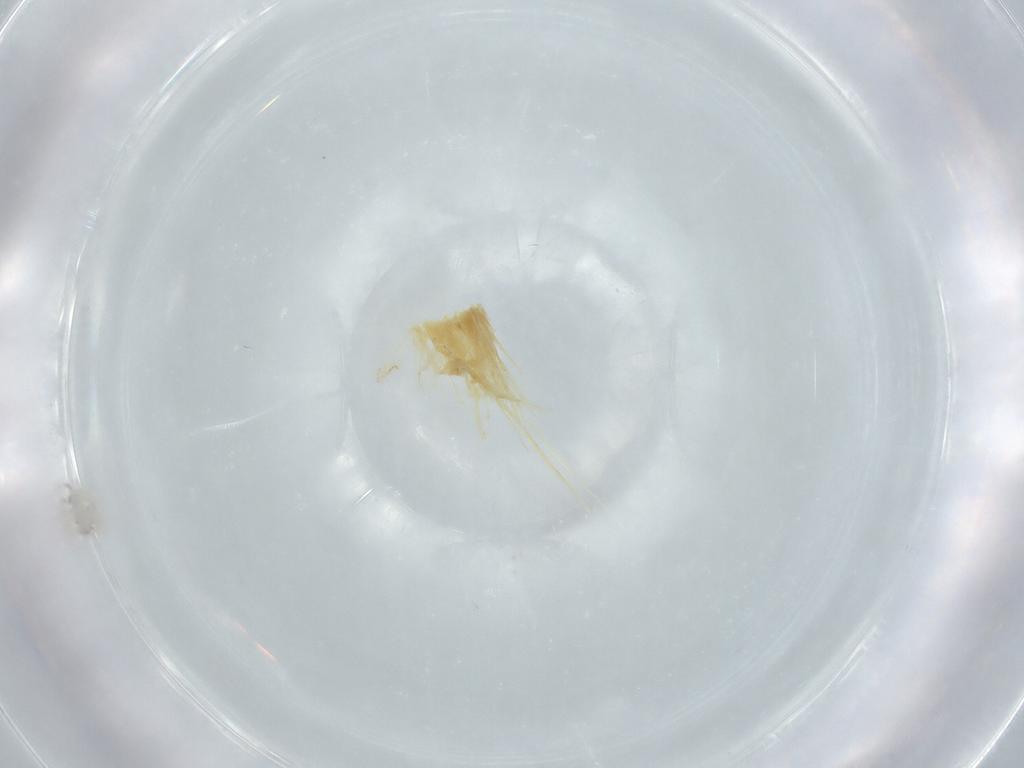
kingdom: Animalia
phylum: Arthropoda
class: Arachnida
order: Sarcoptiformes
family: Mochlozetidae
